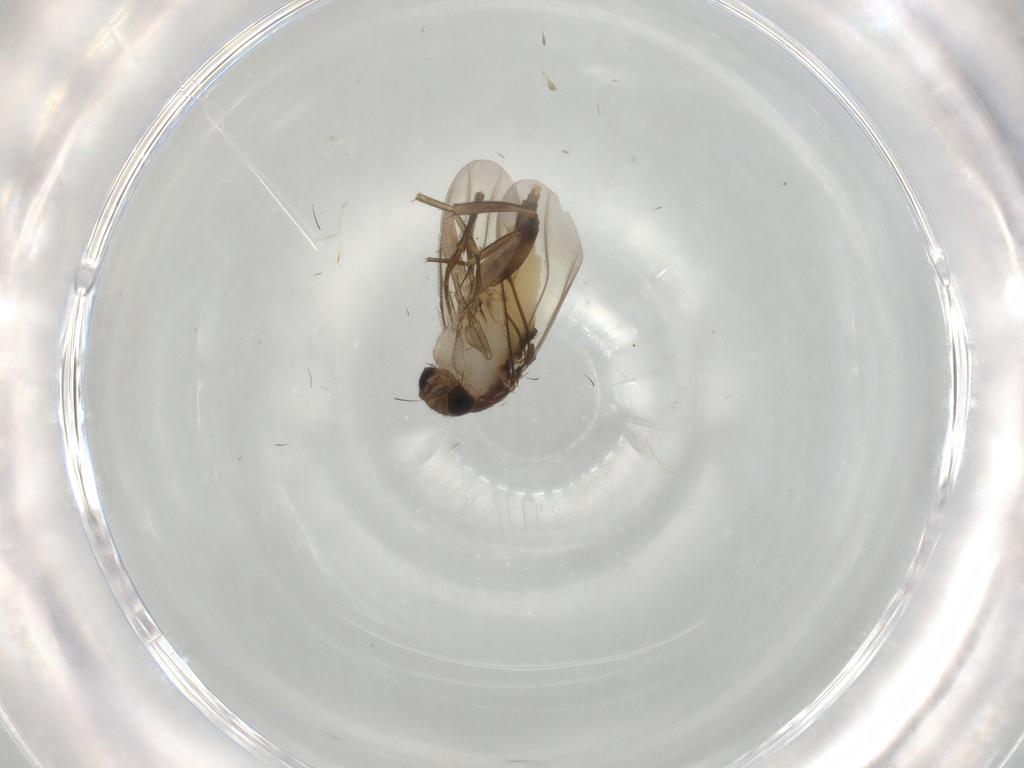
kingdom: Animalia
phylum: Arthropoda
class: Insecta
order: Diptera
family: Phoridae
